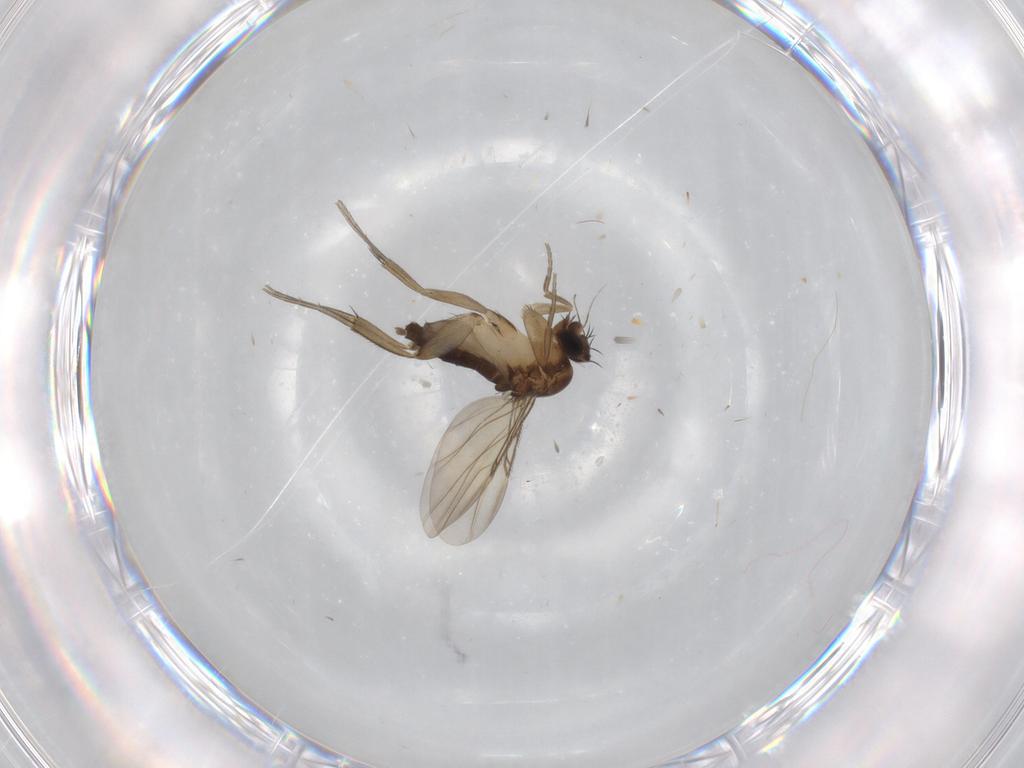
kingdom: Animalia
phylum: Arthropoda
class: Insecta
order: Diptera
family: Phoridae
